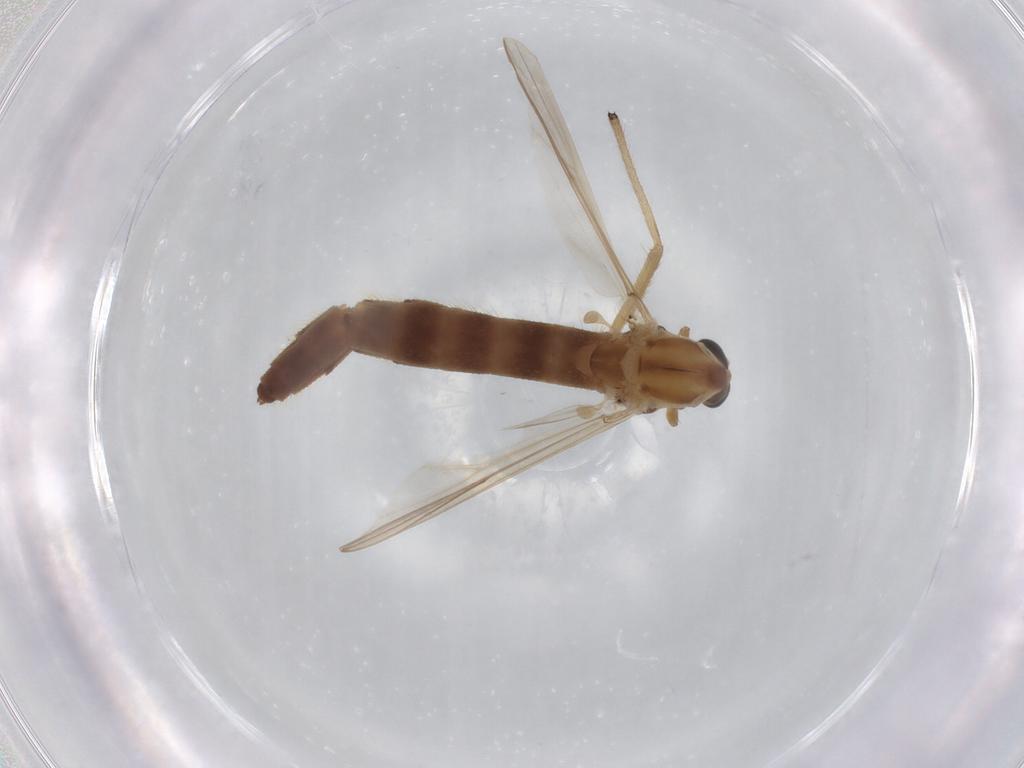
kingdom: Animalia
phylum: Arthropoda
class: Insecta
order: Diptera
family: Chironomidae
